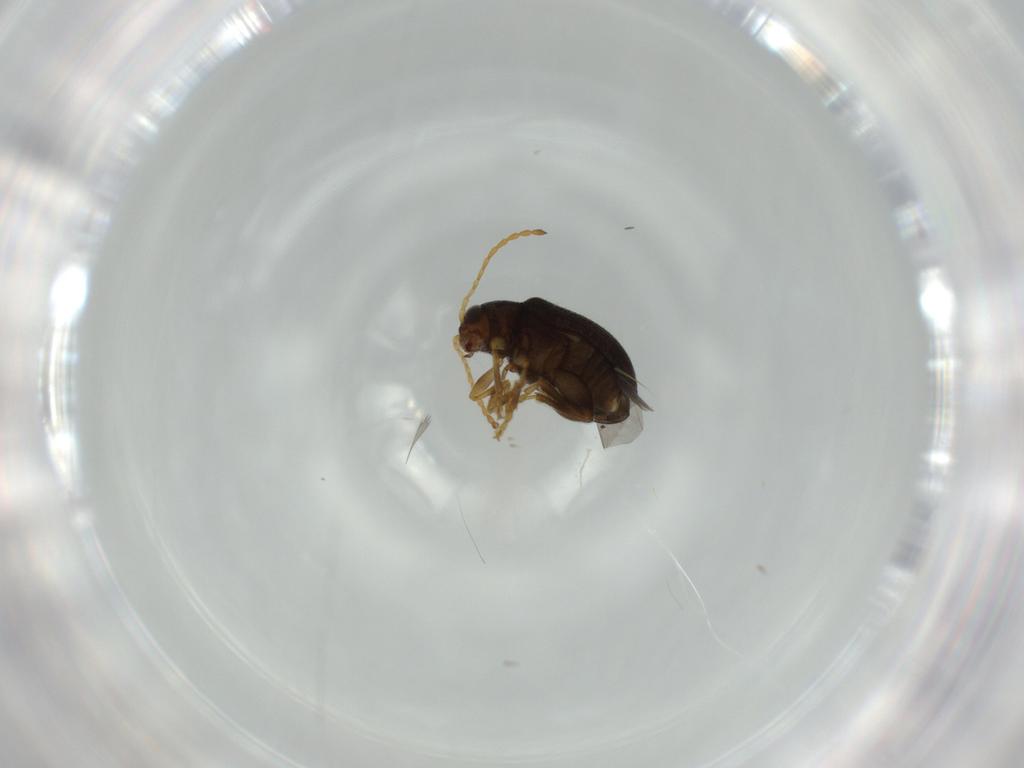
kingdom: Animalia
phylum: Arthropoda
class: Insecta
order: Coleoptera
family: Chrysomelidae
